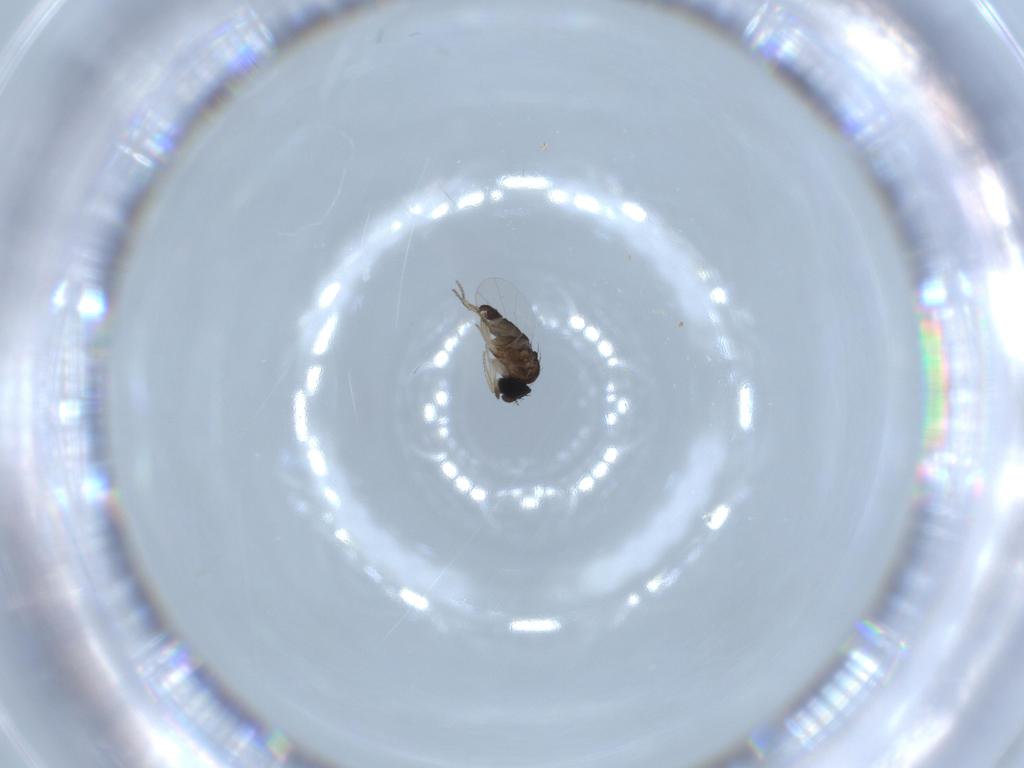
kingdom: Animalia
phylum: Arthropoda
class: Insecta
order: Diptera
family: Phoridae
